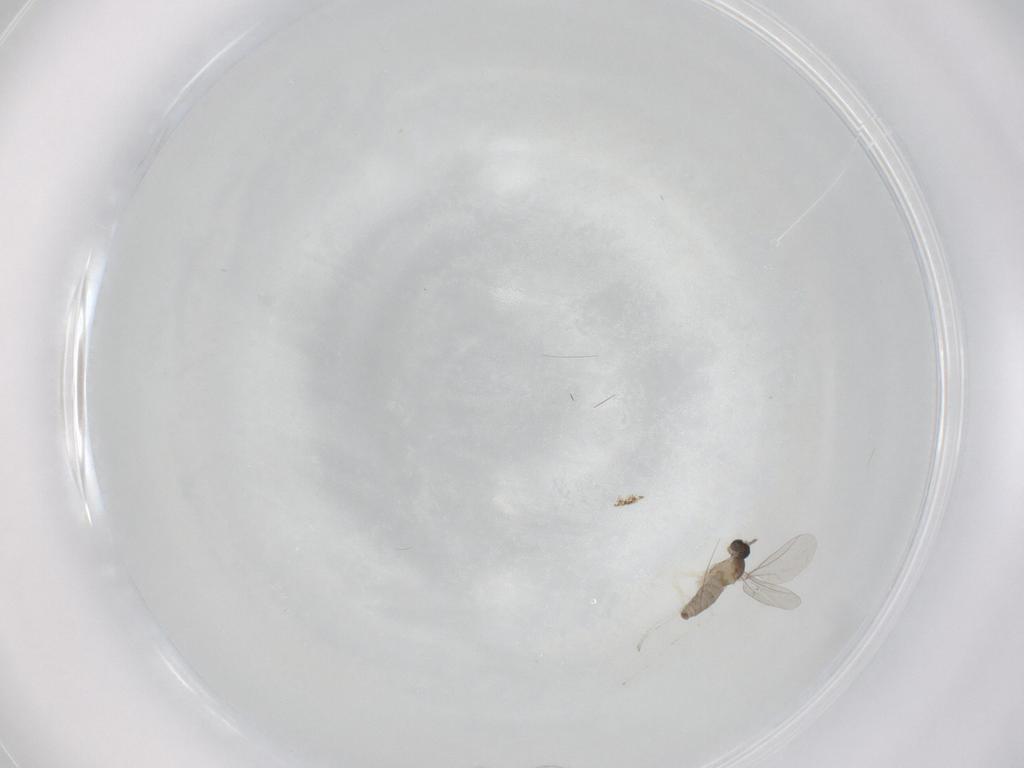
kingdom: Animalia
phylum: Arthropoda
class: Insecta
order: Diptera
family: Cecidomyiidae
